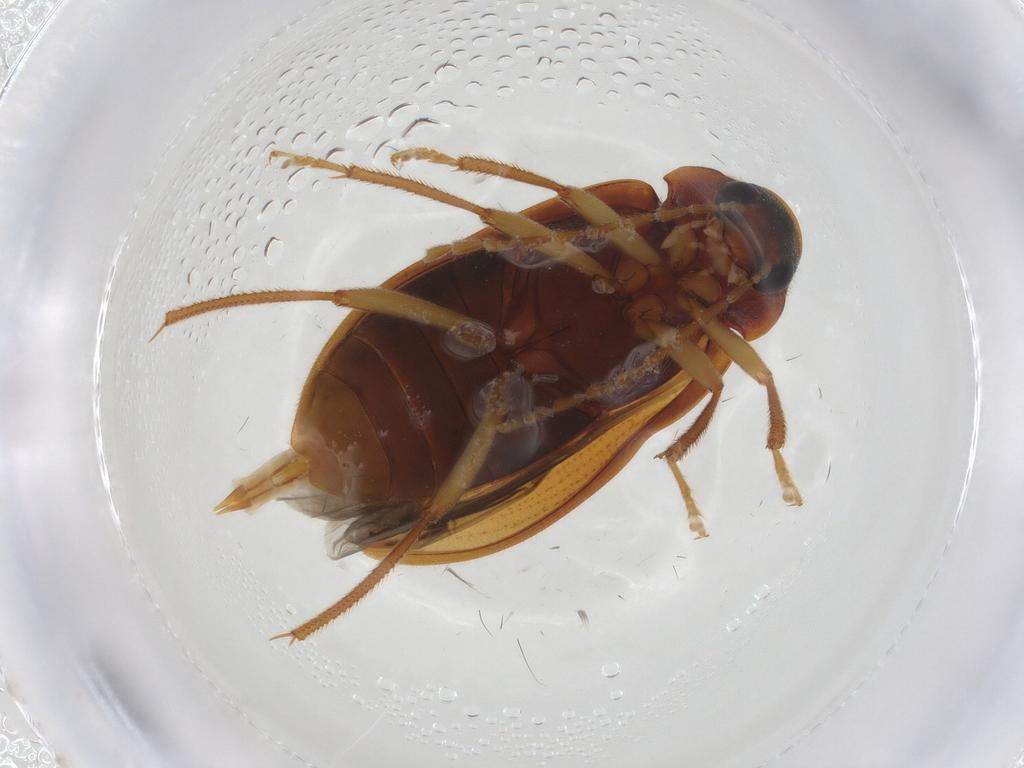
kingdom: Animalia
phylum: Arthropoda
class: Insecta
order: Coleoptera
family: Ptilodactylidae
